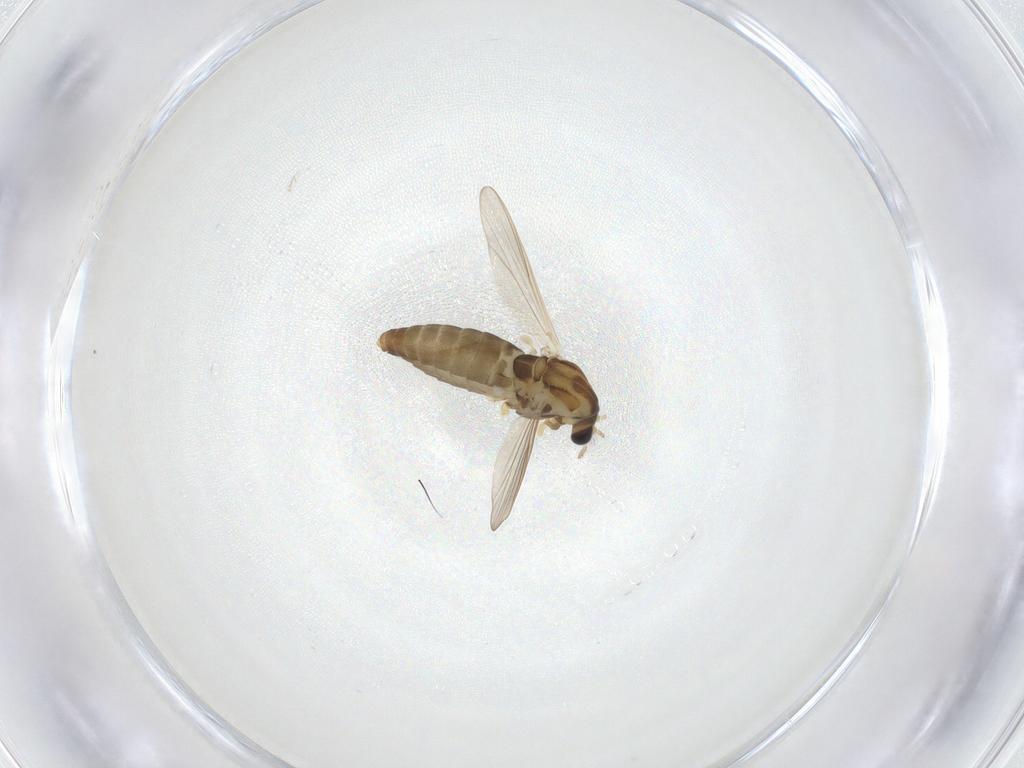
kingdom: Animalia
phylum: Arthropoda
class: Insecta
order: Diptera
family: Chironomidae
